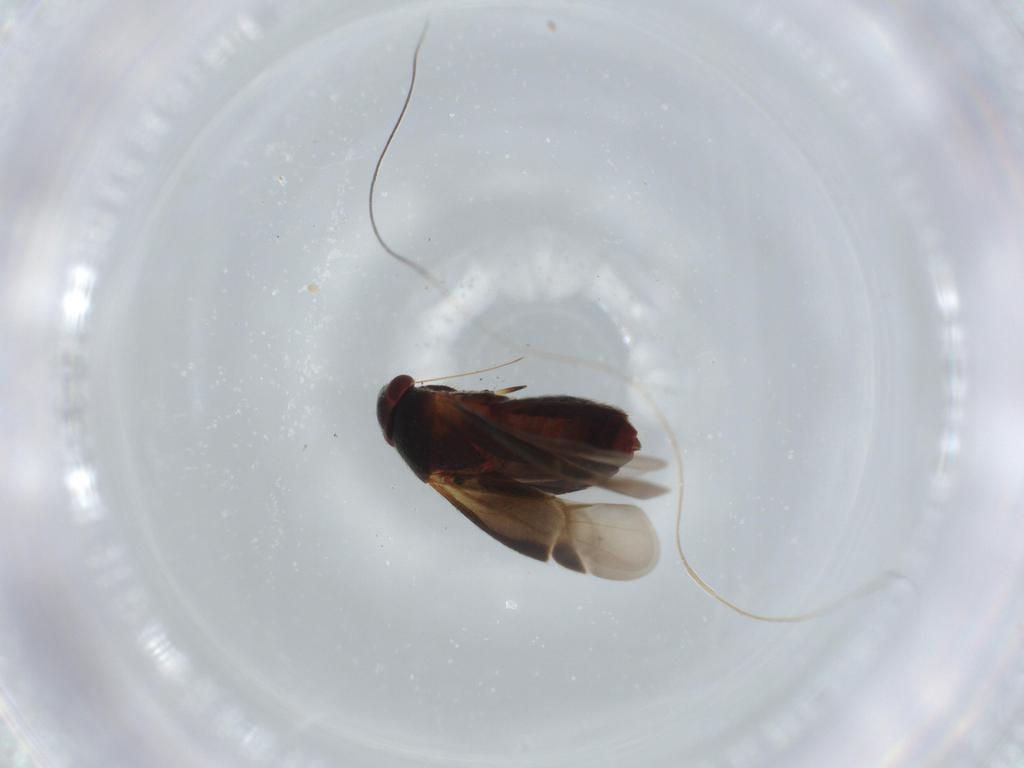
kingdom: Animalia
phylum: Arthropoda
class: Insecta
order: Hemiptera
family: Miridae
